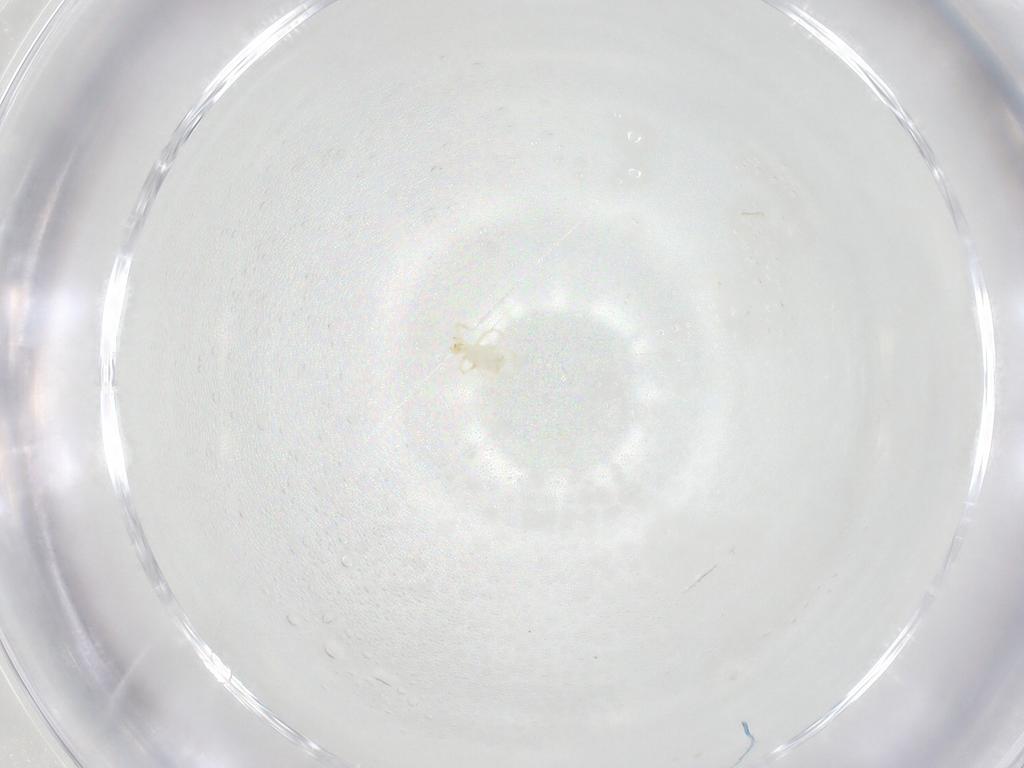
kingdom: Animalia
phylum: Arthropoda
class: Arachnida
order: Trombidiformes
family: Erythraeidae
